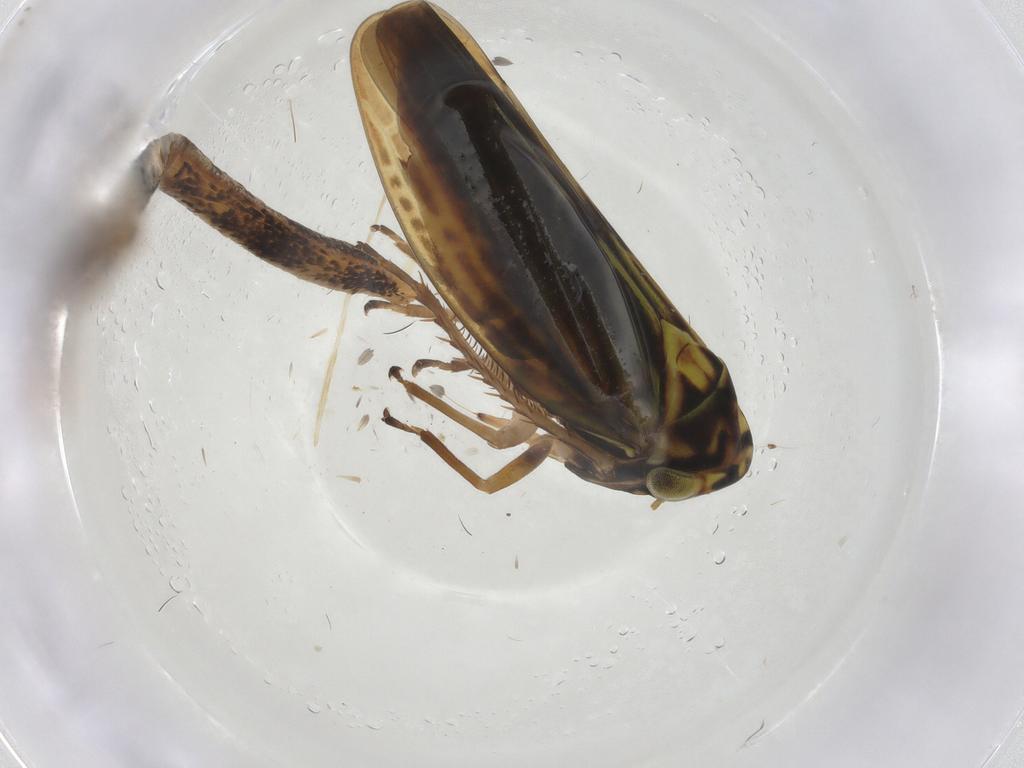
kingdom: Animalia
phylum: Arthropoda
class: Insecta
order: Hemiptera
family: Cicadellidae
